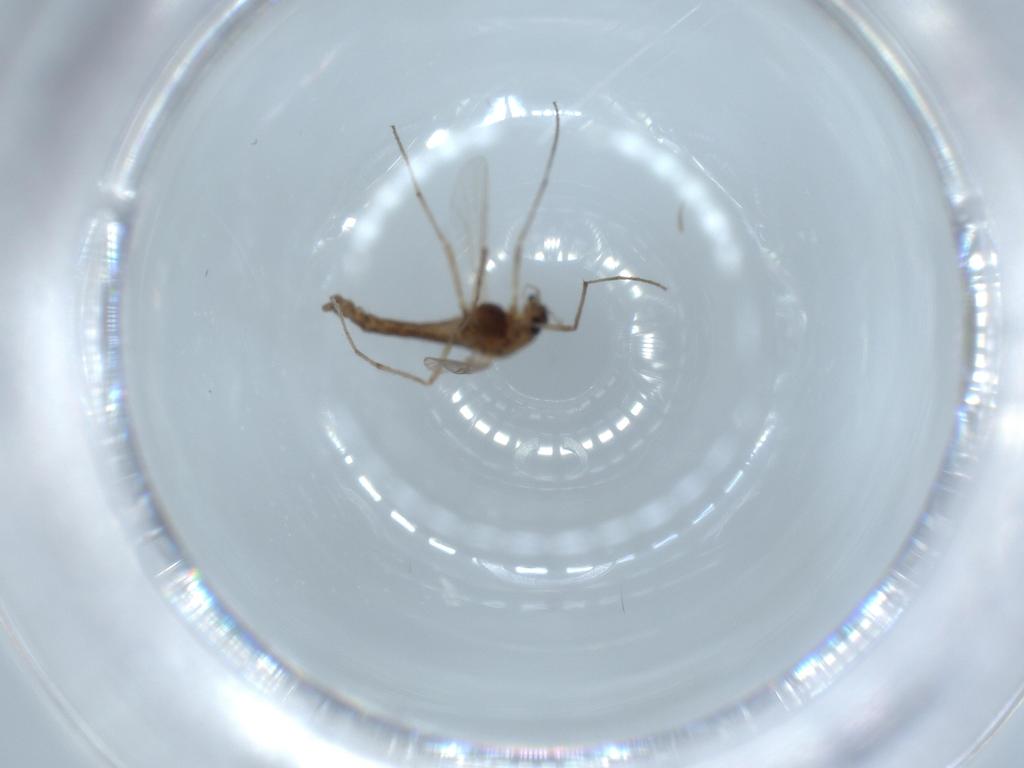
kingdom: Animalia
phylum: Arthropoda
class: Insecta
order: Diptera
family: Chironomidae
